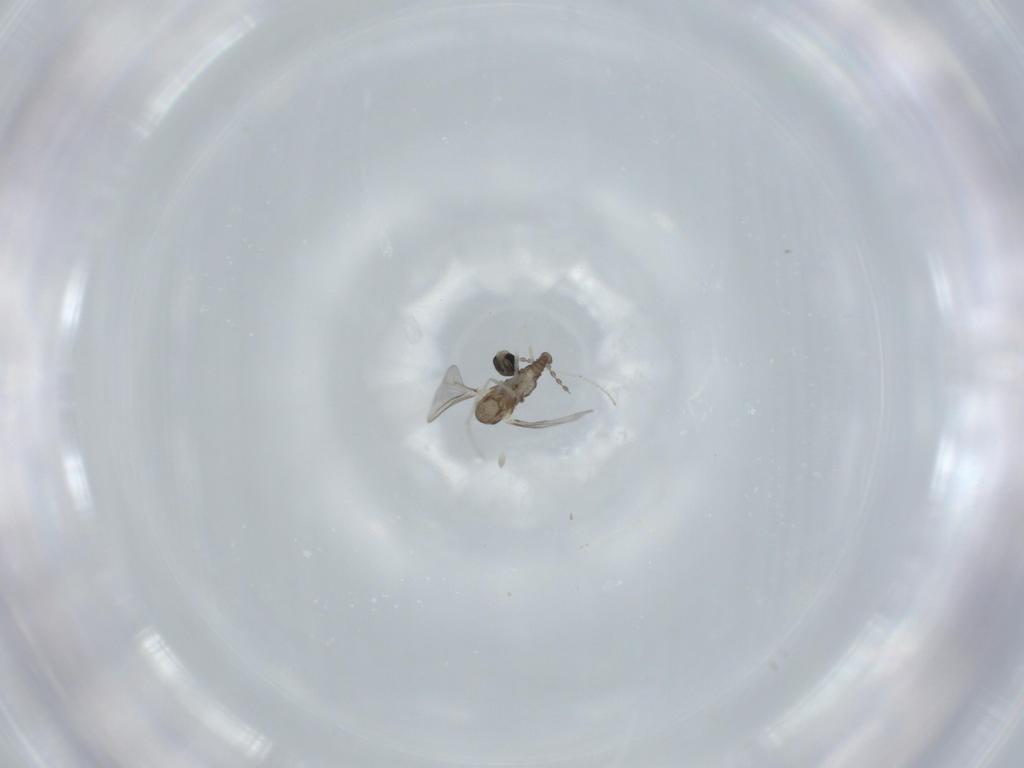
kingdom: Animalia
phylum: Arthropoda
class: Insecta
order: Diptera
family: Cecidomyiidae
